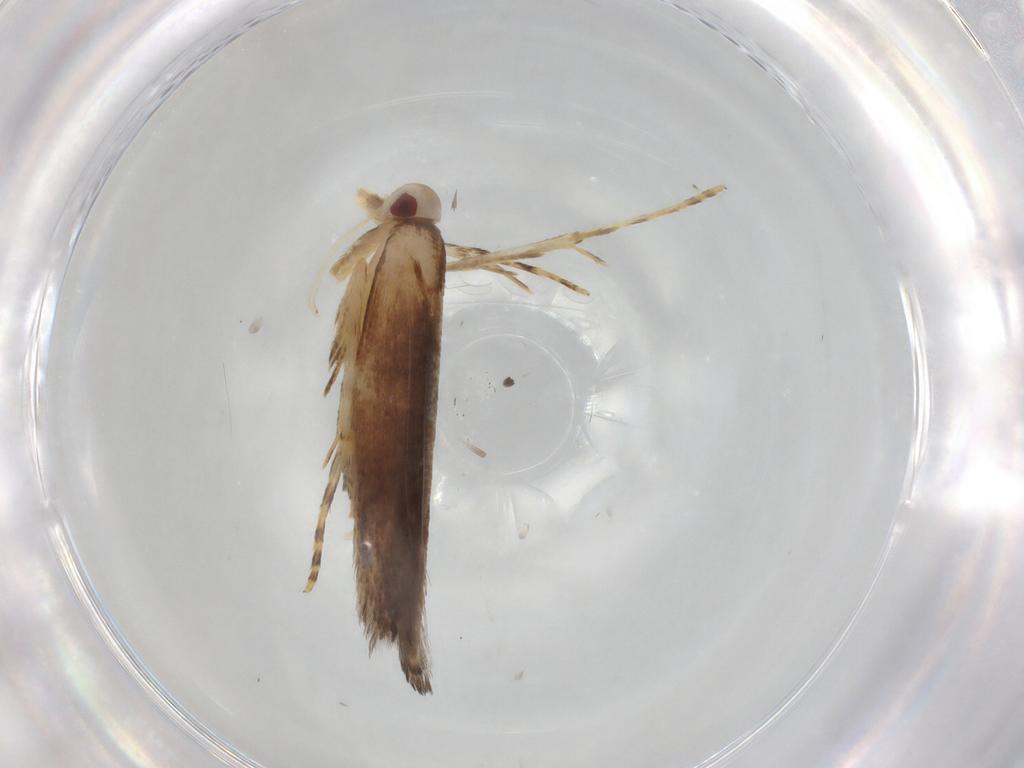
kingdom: Animalia
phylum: Arthropoda
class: Insecta
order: Lepidoptera
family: Cosmopterigidae
